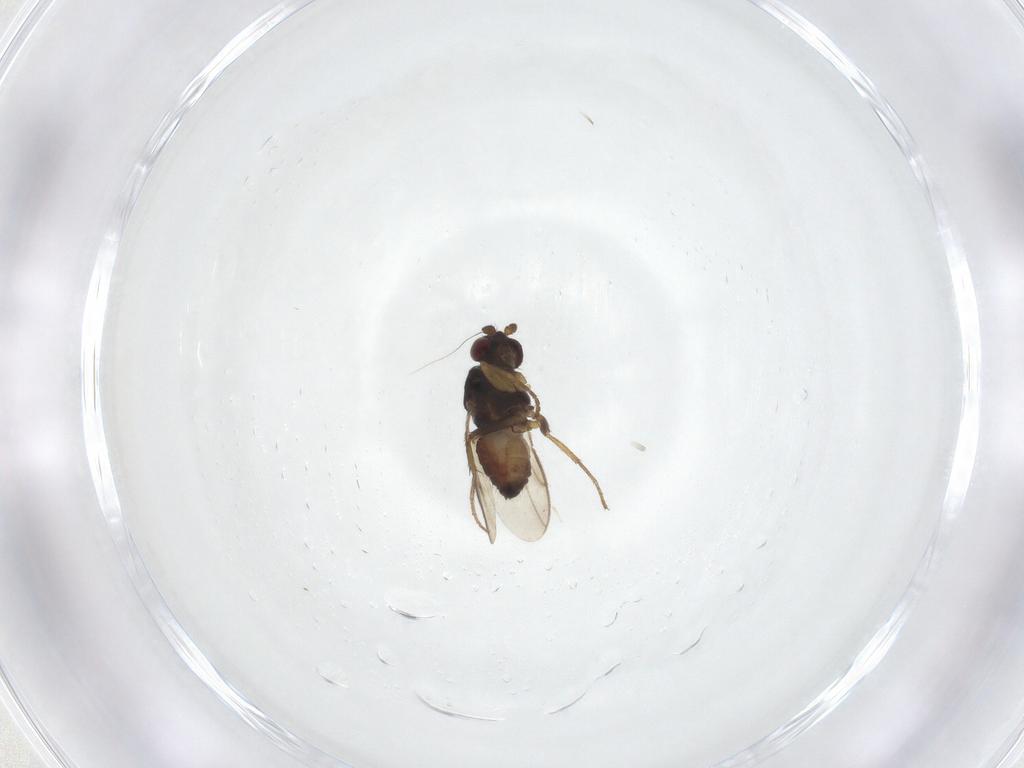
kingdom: Animalia
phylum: Arthropoda
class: Insecta
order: Diptera
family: Sphaeroceridae
